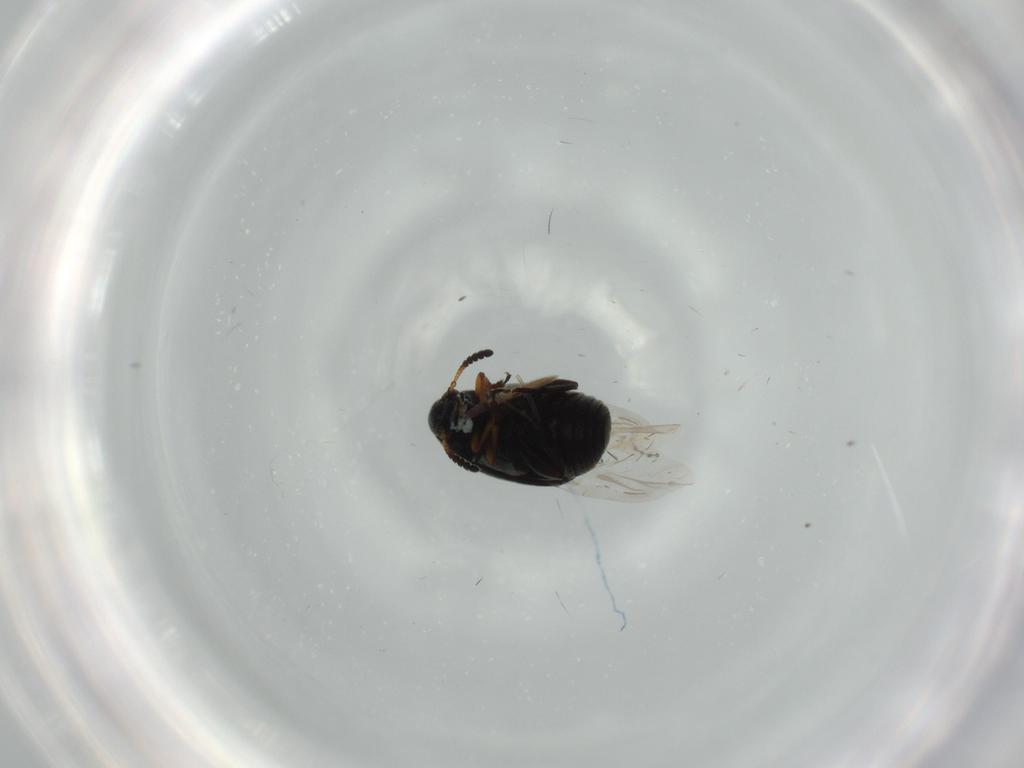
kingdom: Animalia
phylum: Arthropoda
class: Insecta
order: Coleoptera
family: Chrysomelidae
